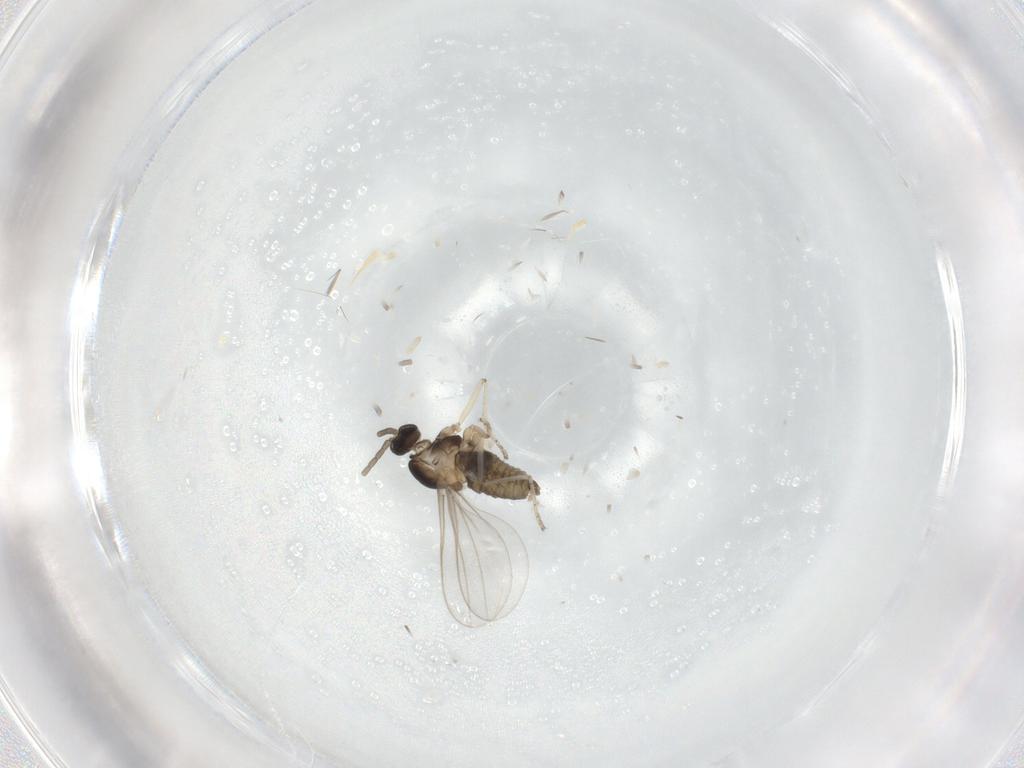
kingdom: Animalia
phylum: Arthropoda
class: Insecta
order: Diptera
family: Cecidomyiidae
